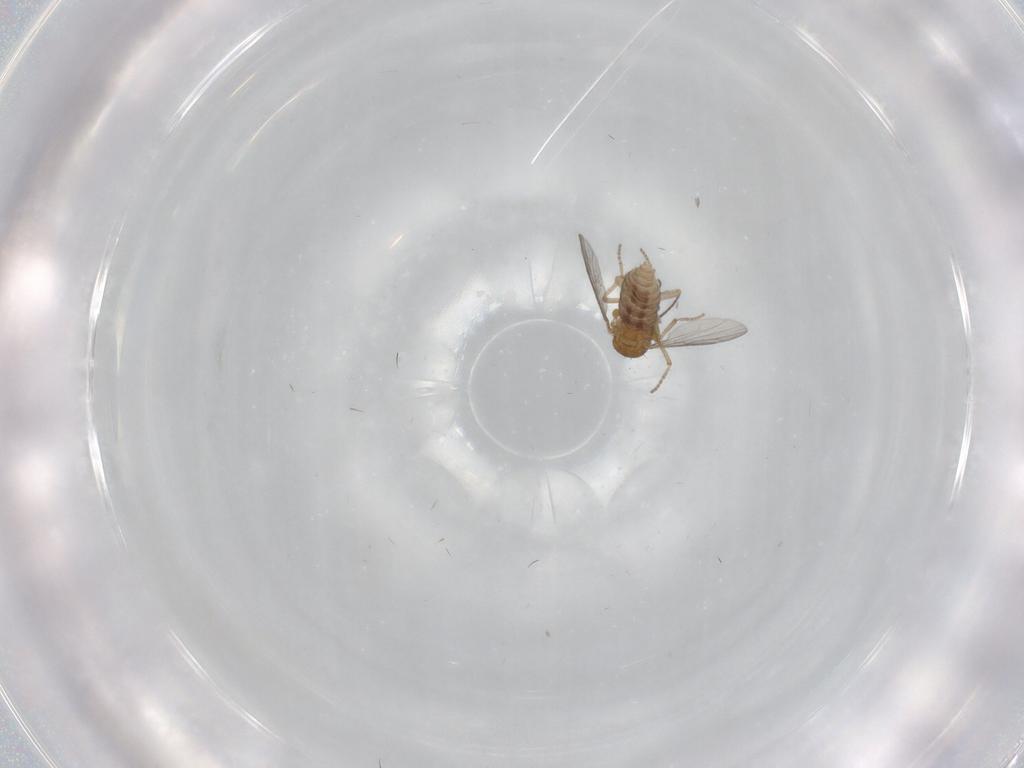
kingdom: Animalia
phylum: Arthropoda
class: Insecta
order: Diptera
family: Ceratopogonidae
